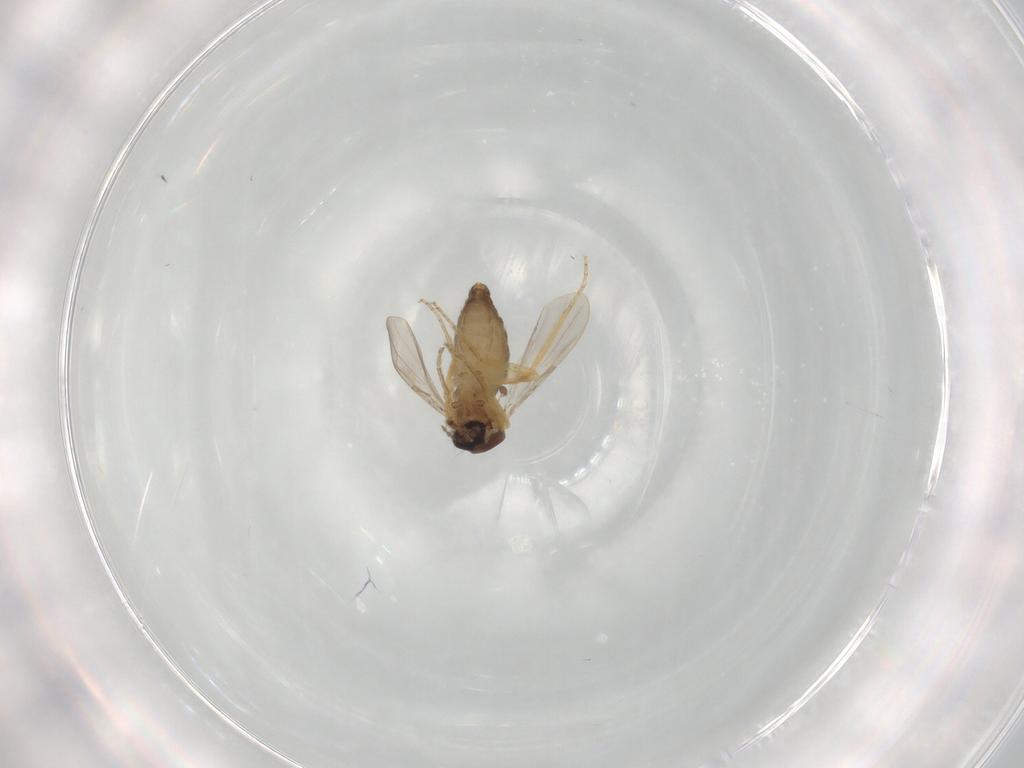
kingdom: Animalia
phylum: Arthropoda
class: Insecta
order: Diptera
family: Ceratopogonidae
